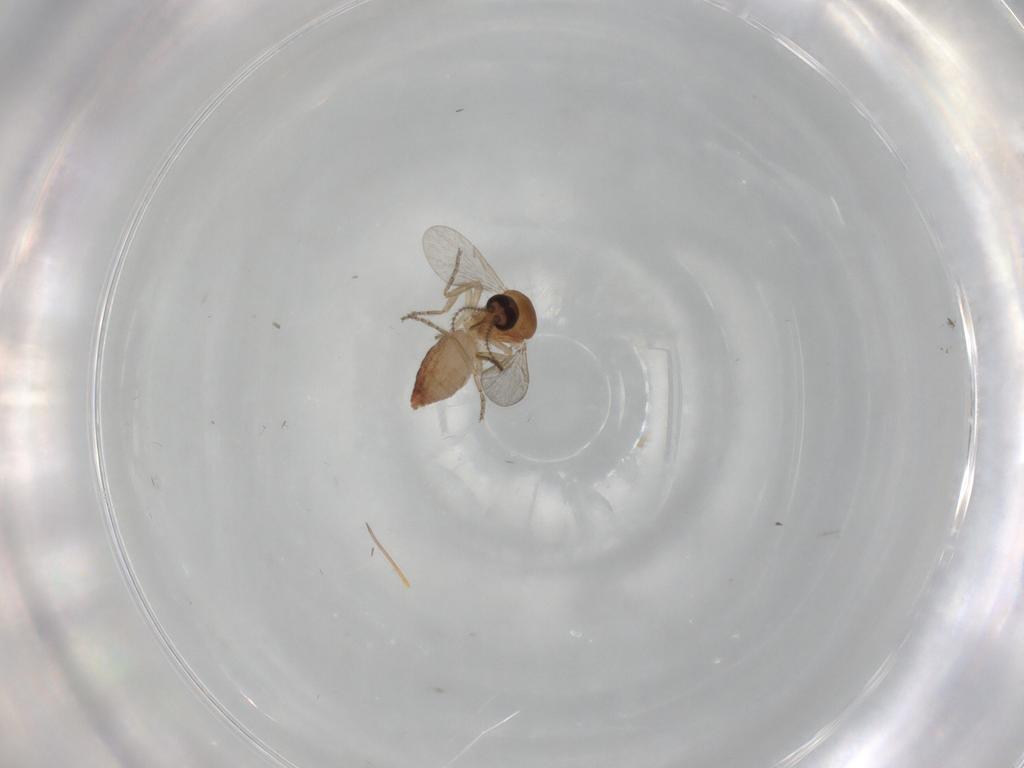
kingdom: Animalia
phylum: Arthropoda
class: Insecta
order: Diptera
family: Ceratopogonidae
